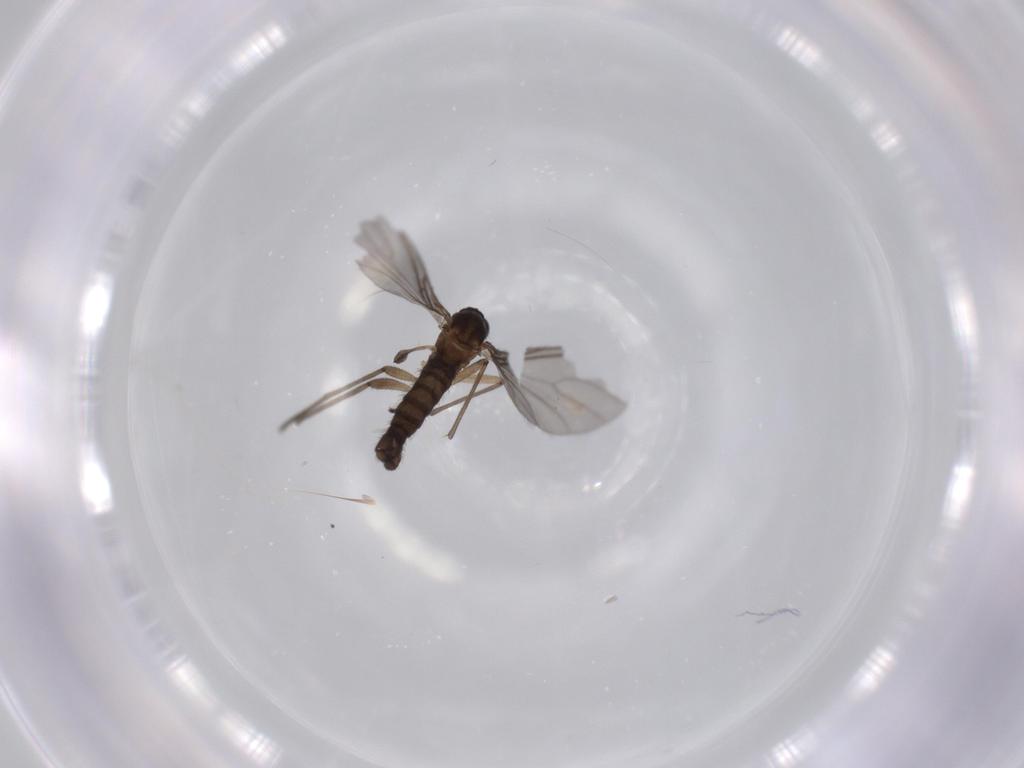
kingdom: Animalia
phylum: Arthropoda
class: Insecta
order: Diptera
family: Sciaridae
